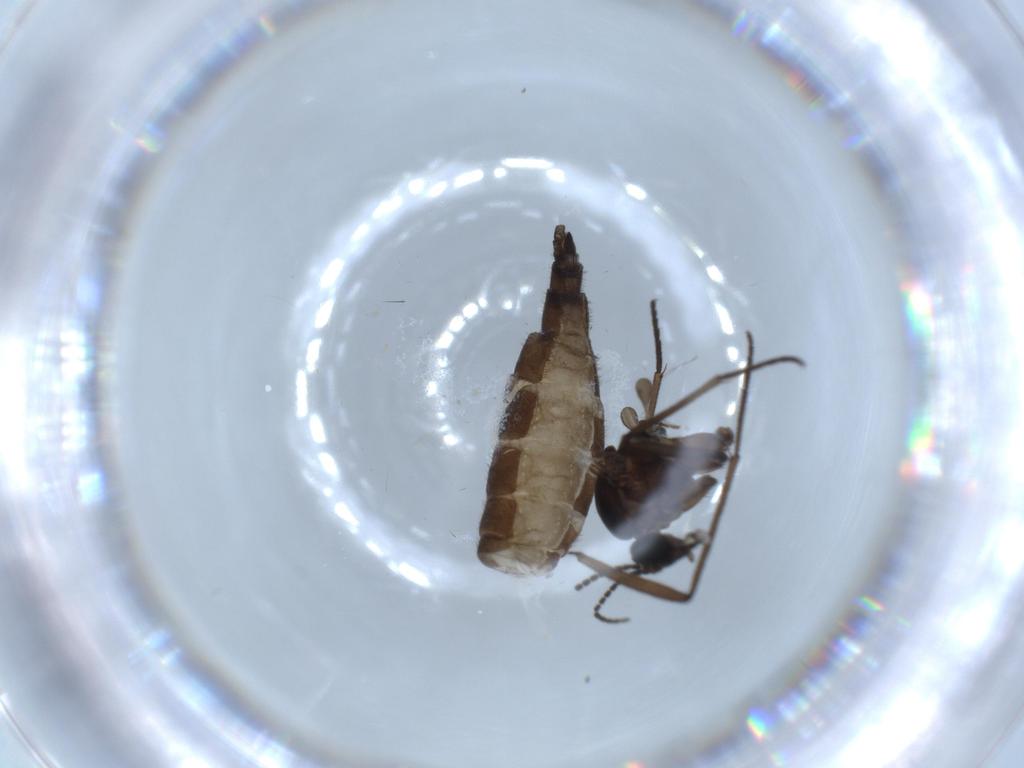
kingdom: Animalia
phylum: Arthropoda
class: Insecta
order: Diptera
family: Sciaridae
